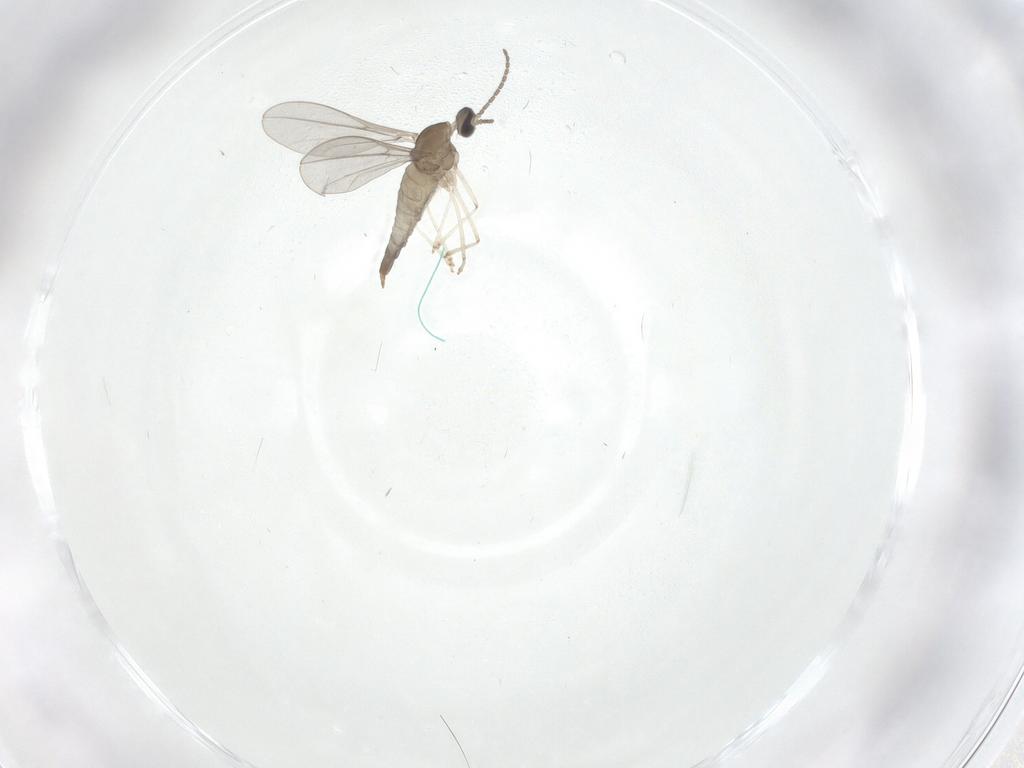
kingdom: Animalia
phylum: Arthropoda
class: Insecta
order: Diptera
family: Cecidomyiidae
